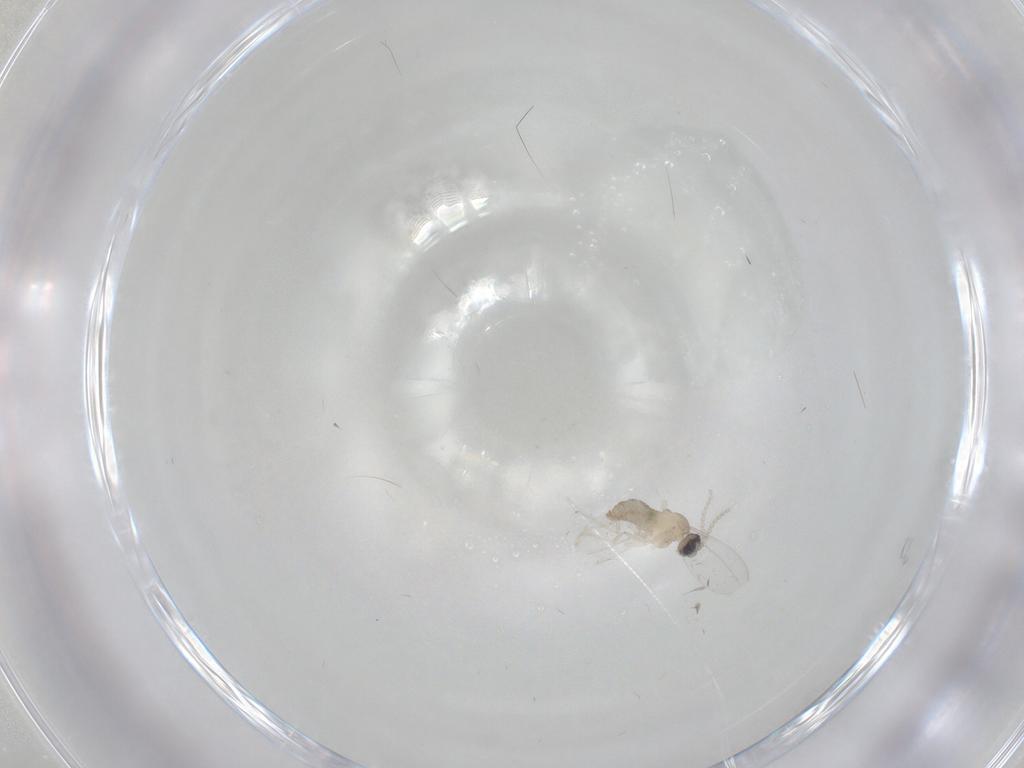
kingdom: Animalia
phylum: Arthropoda
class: Insecta
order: Diptera
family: Cecidomyiidae
